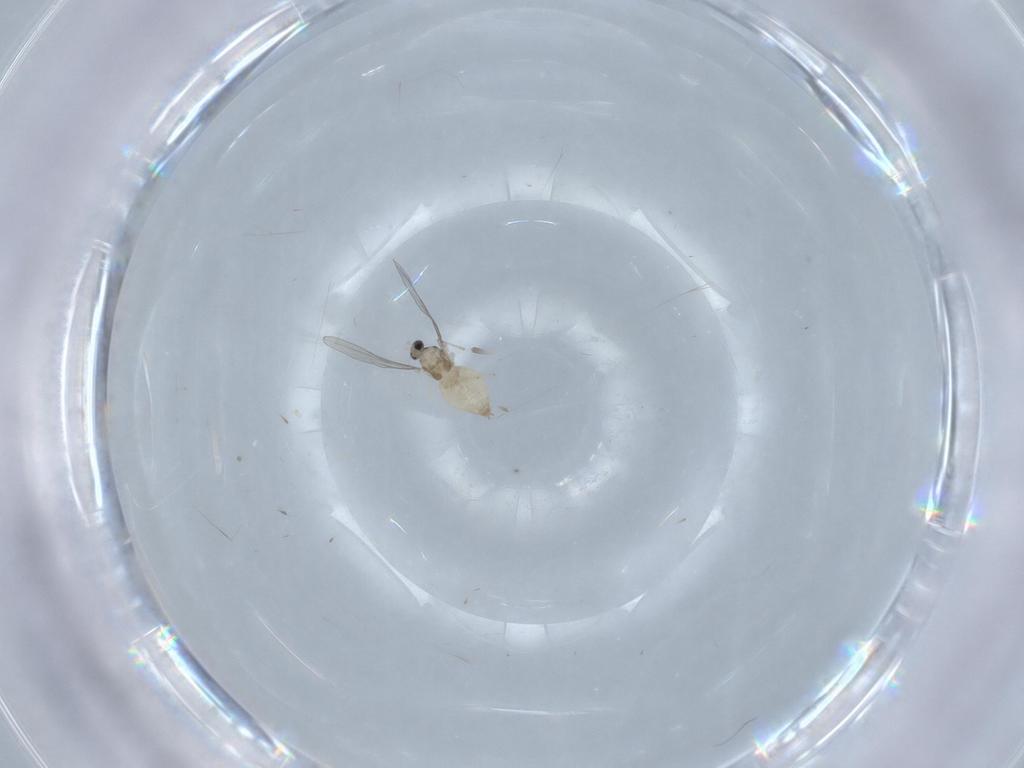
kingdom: Animalia
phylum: Arthropoda
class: Insecta
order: Diptera
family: Cecidomyiidae
